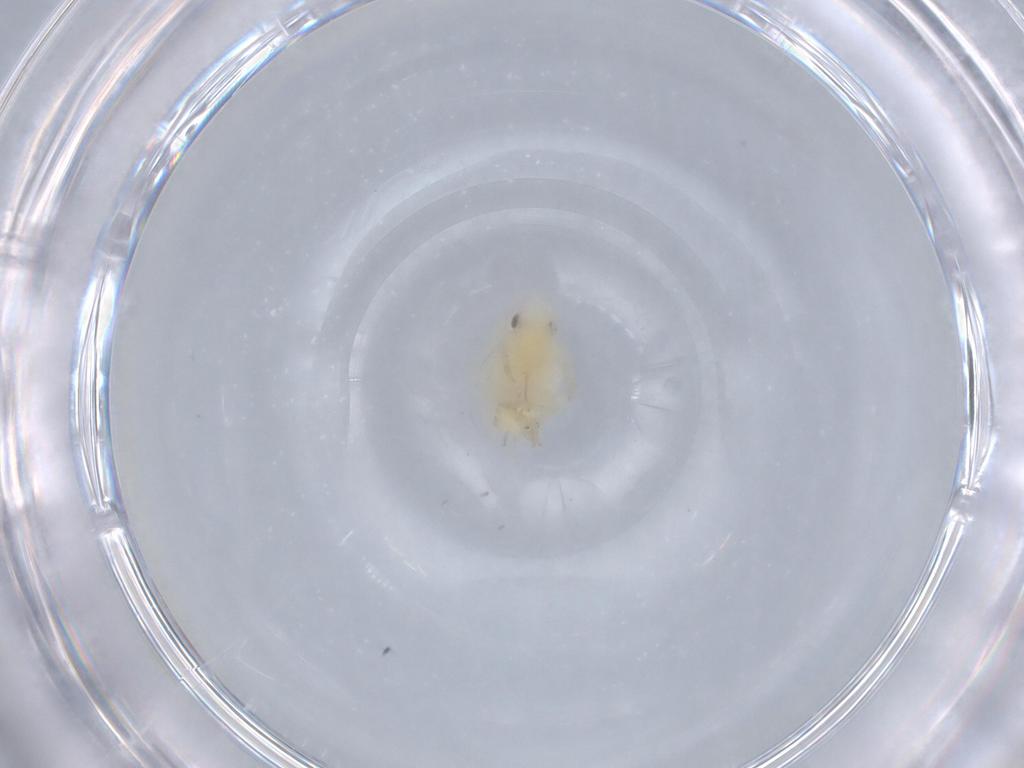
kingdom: Animalia
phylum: Arthropoda
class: Insecta
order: Hemiptera
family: Flatidae
